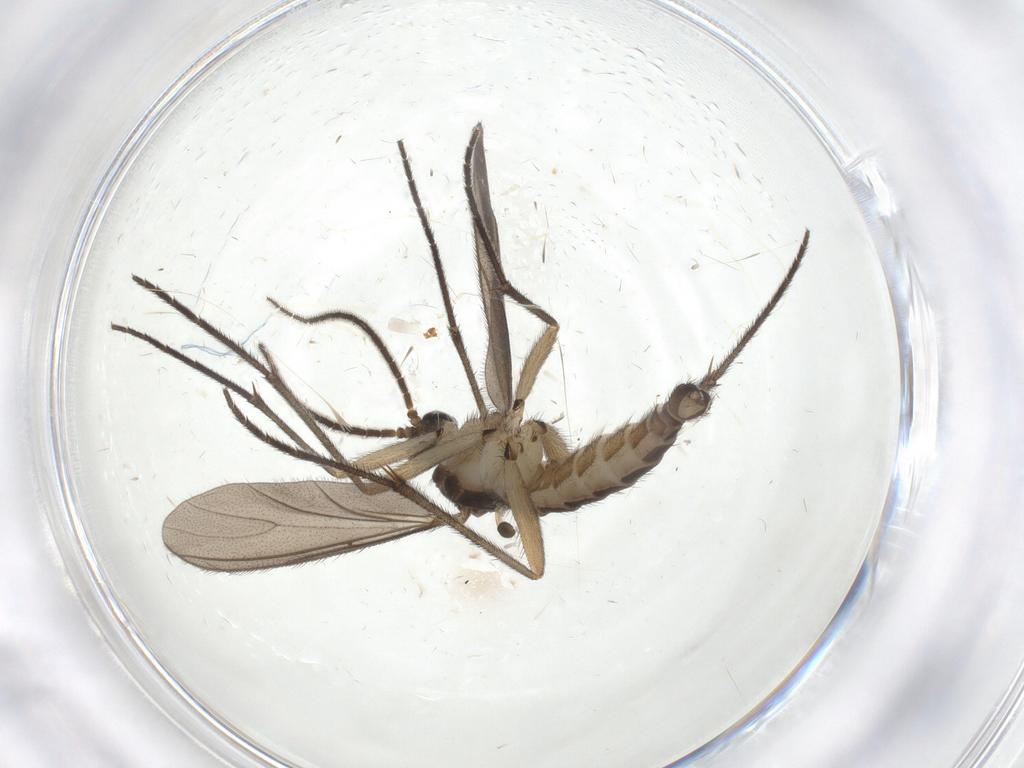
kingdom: Animalia
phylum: Arthropoda
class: Insecta
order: Diptera
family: Sciaridae
